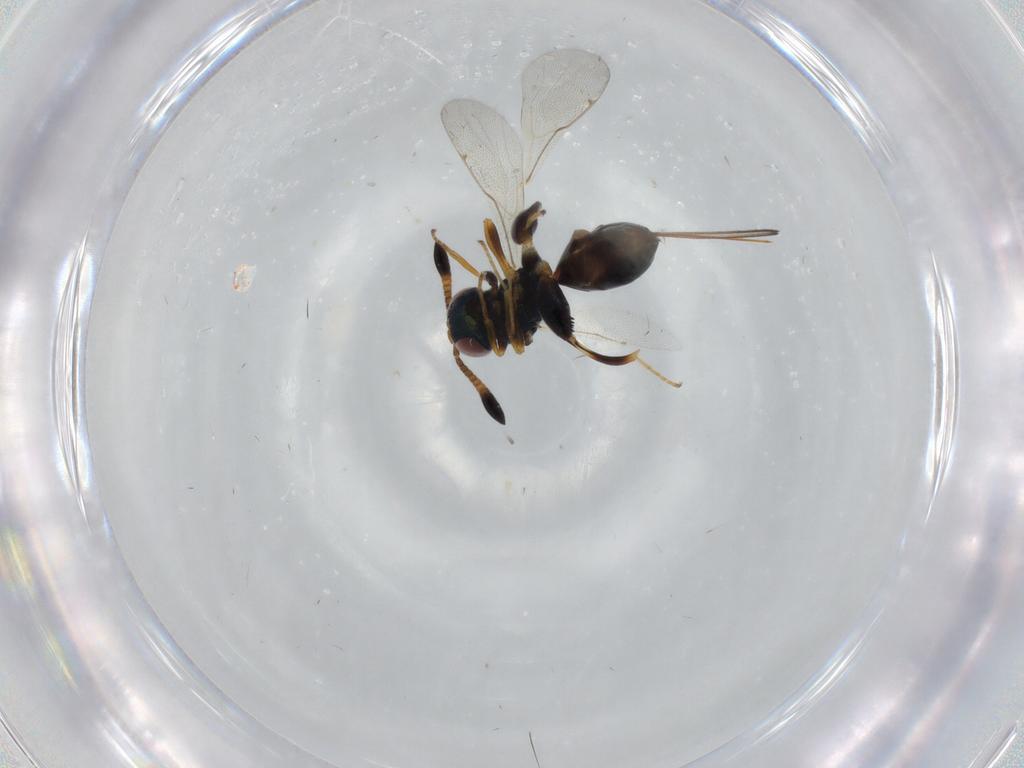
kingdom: Animalia
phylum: Arthropoda
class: Insecta
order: Hymenoptera
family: Torymidae
